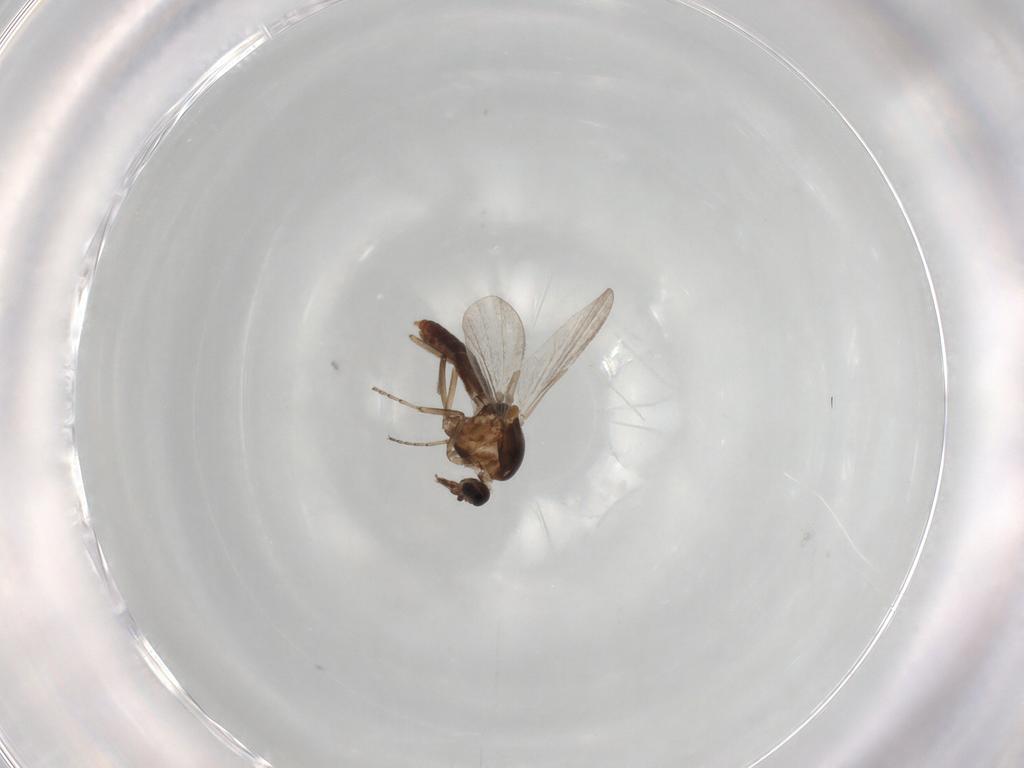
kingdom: Animalia
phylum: Arthropoda
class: Insecta
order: Diptera
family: Ceratopogonidae
